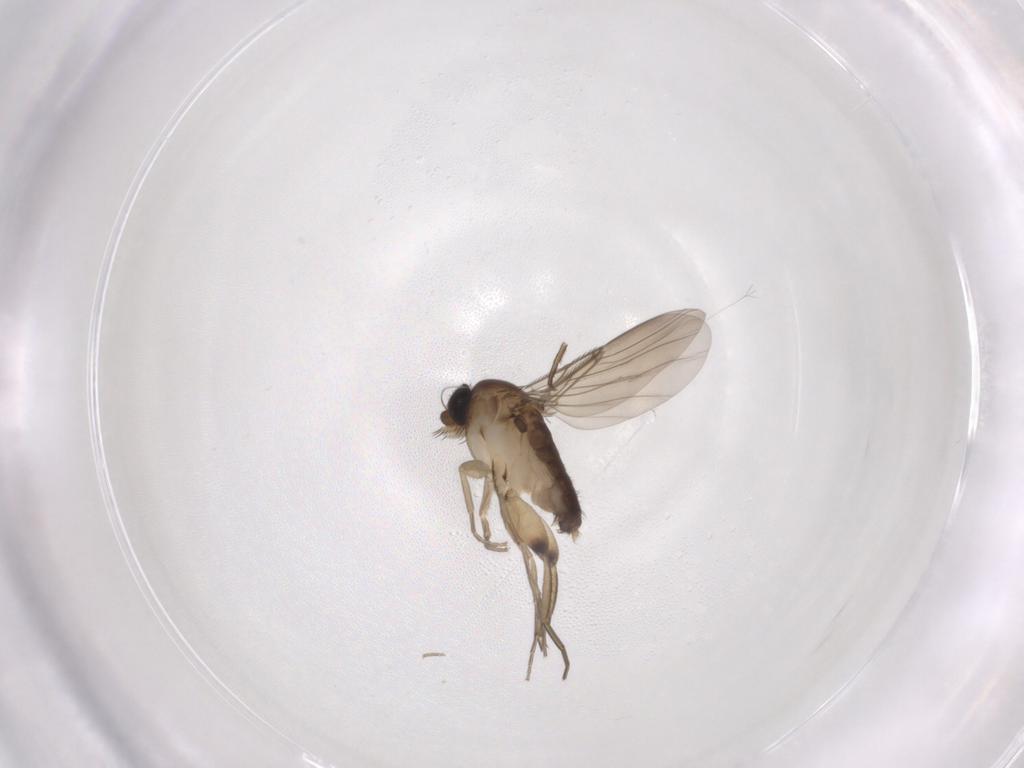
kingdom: Animalia
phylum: Arthropoda
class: Insecta
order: Diptera
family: Phoridae
